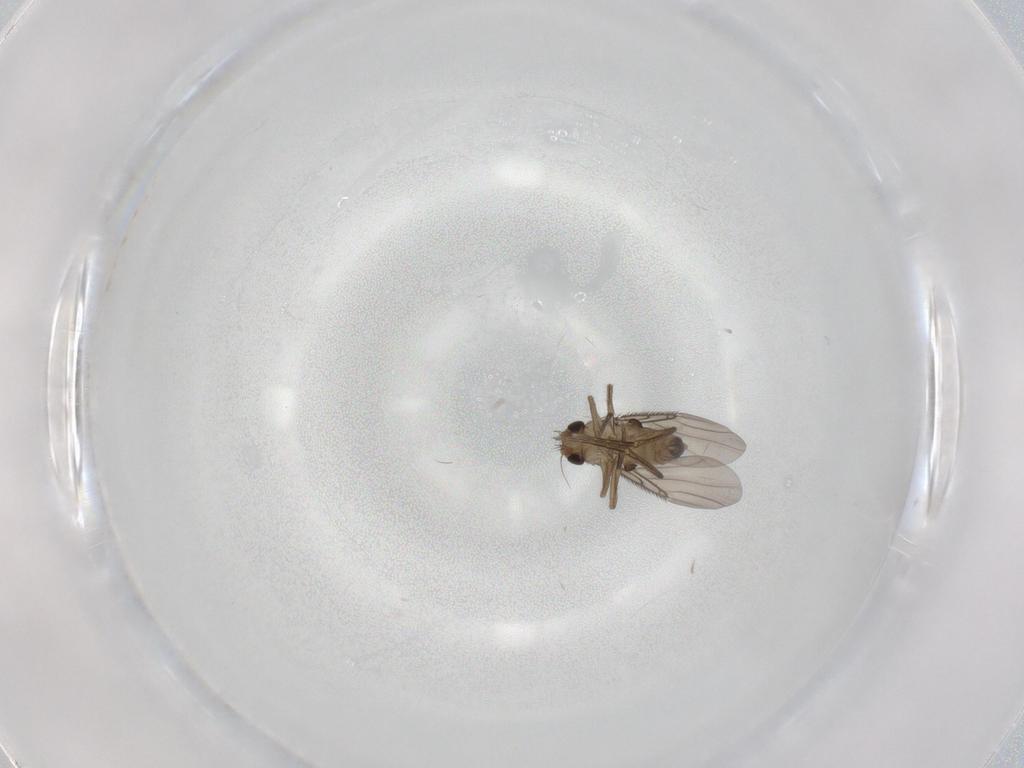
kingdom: Animalia
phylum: Arthropoda
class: Insecta
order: Diptera
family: Phoridae
